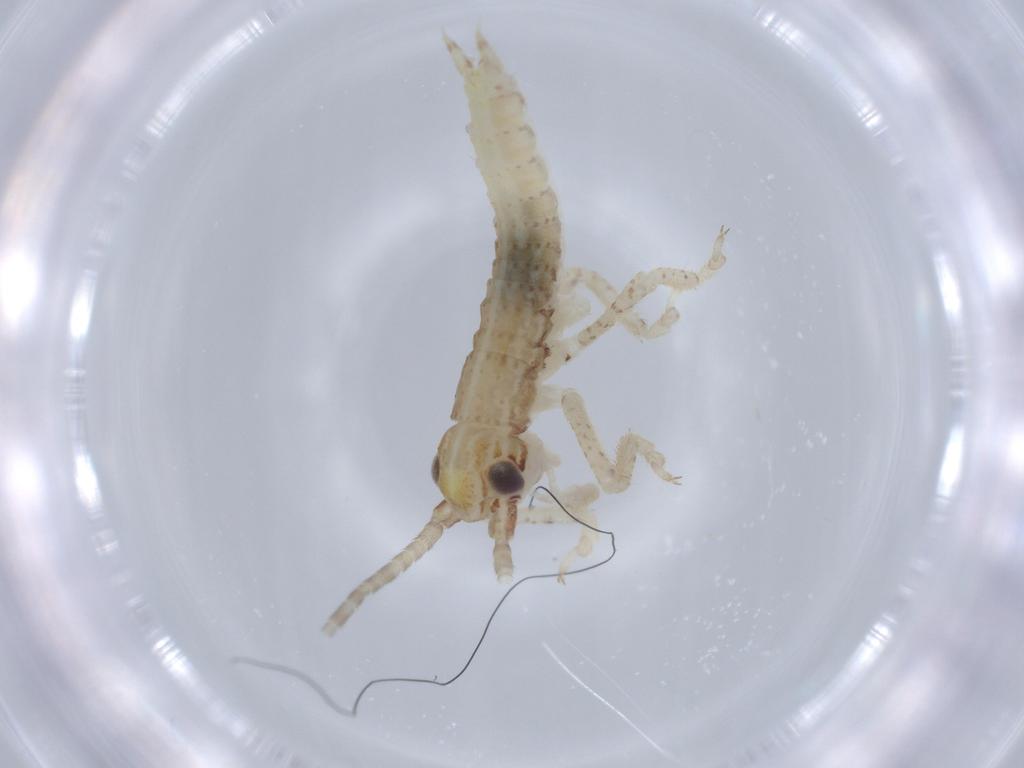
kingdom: Animalia
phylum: Arthropoda
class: Insecta
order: Orthoptera
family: Gryllidae
